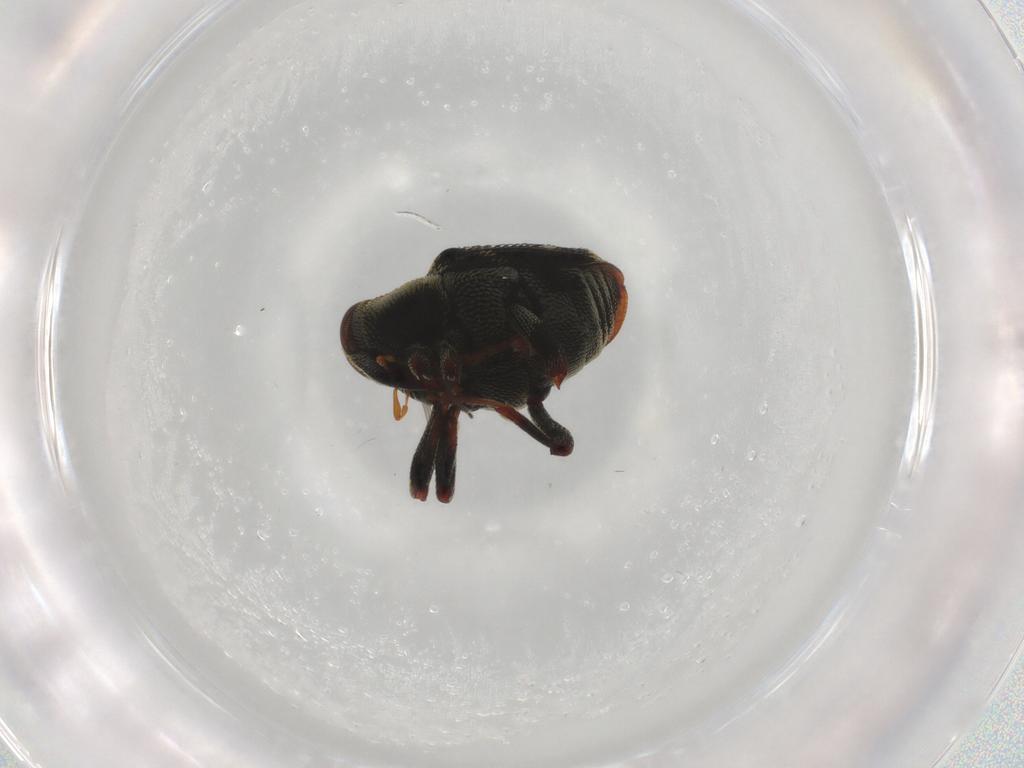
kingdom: Animalia
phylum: Arthropoda
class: Insecta
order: Coleoptera
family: Curculionidae
